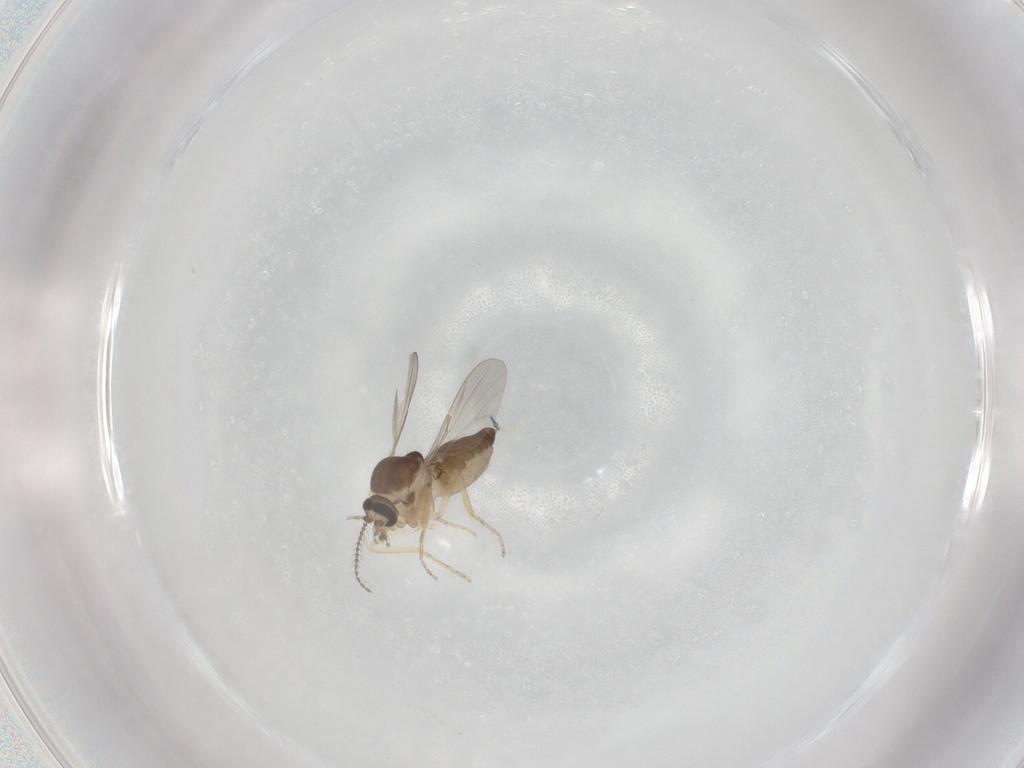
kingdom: Animalia
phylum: Arthropoda
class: Insecta
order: Diptera
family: Ceratopogonidae
